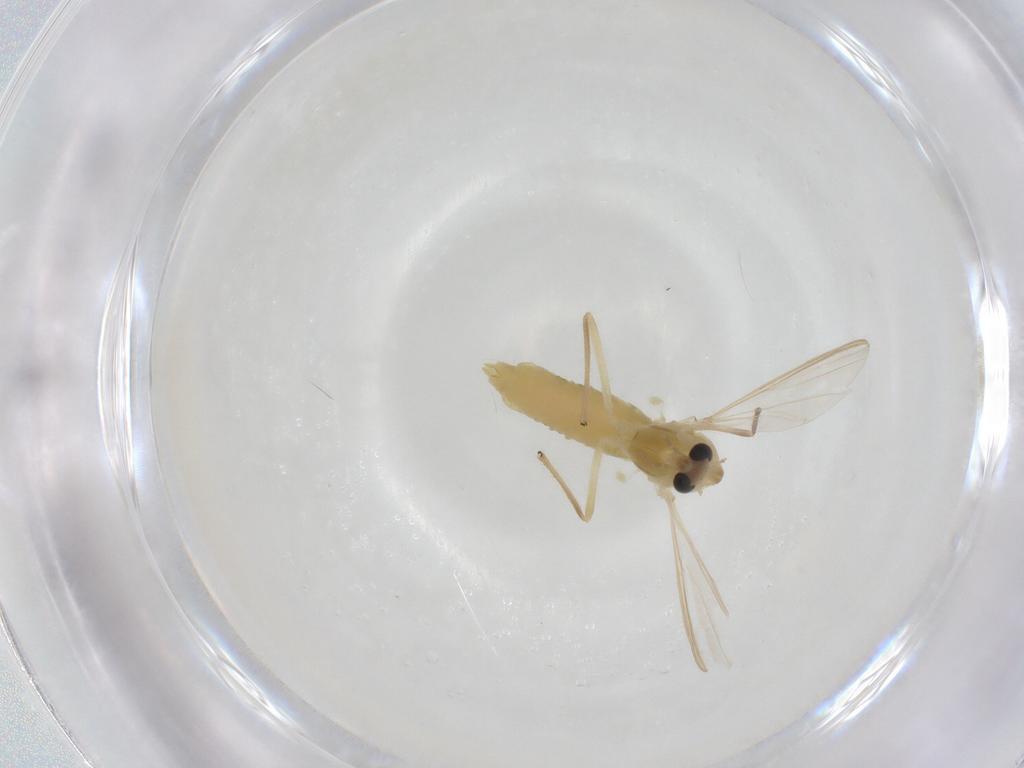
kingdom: Animalia
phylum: Arthropoda
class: Insecta
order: Diptera
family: Chironomidae
